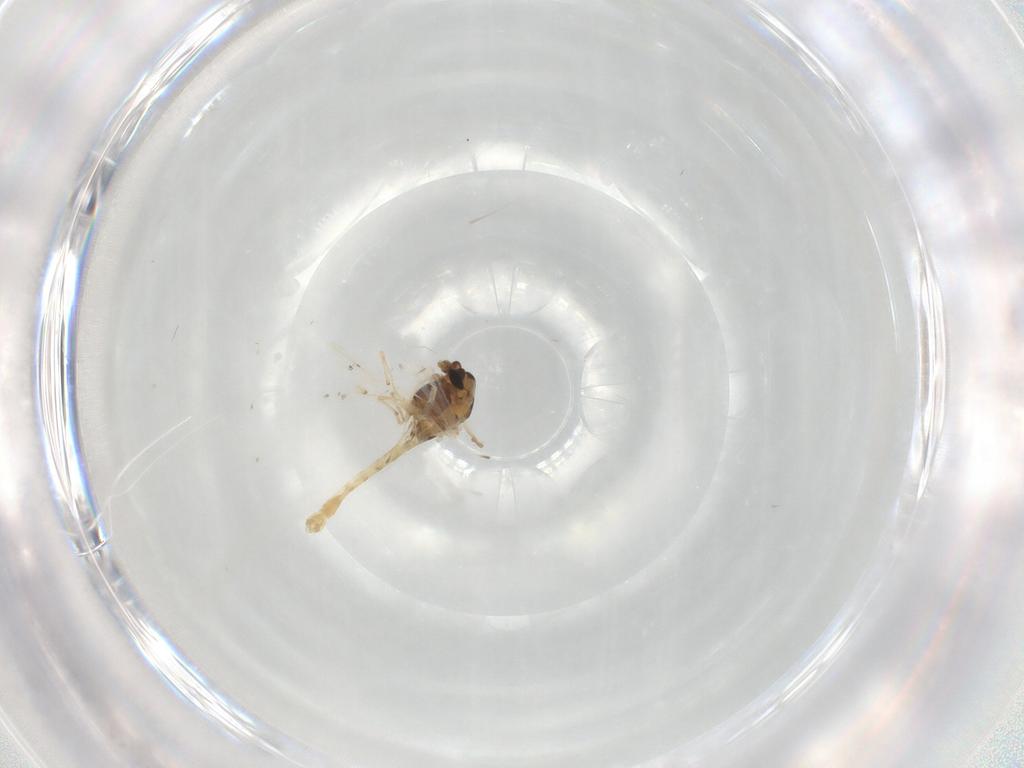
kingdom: Animalia
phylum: Arthropoda
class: Insecta
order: Diptera
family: Chironomidae
